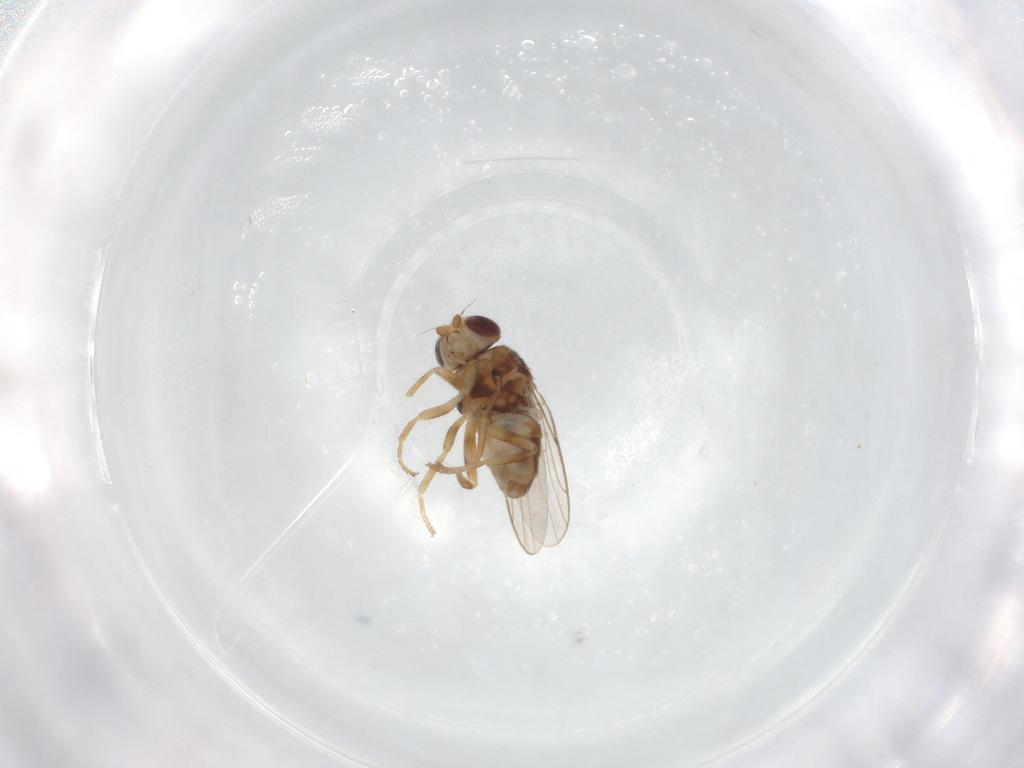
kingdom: Animalia
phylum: Arthropoda
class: Insecta
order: Diptera
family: Chloropidae
